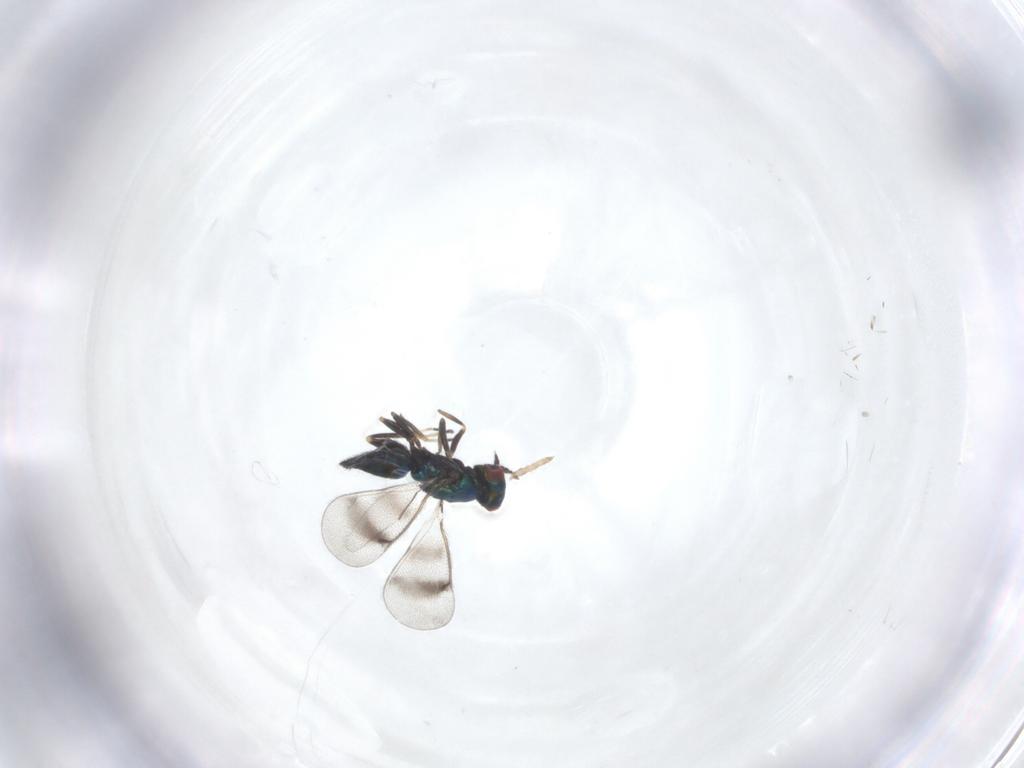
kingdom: Animalia
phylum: Arthropoda
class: Insecta
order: Hymenoptera
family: Eulophidae
